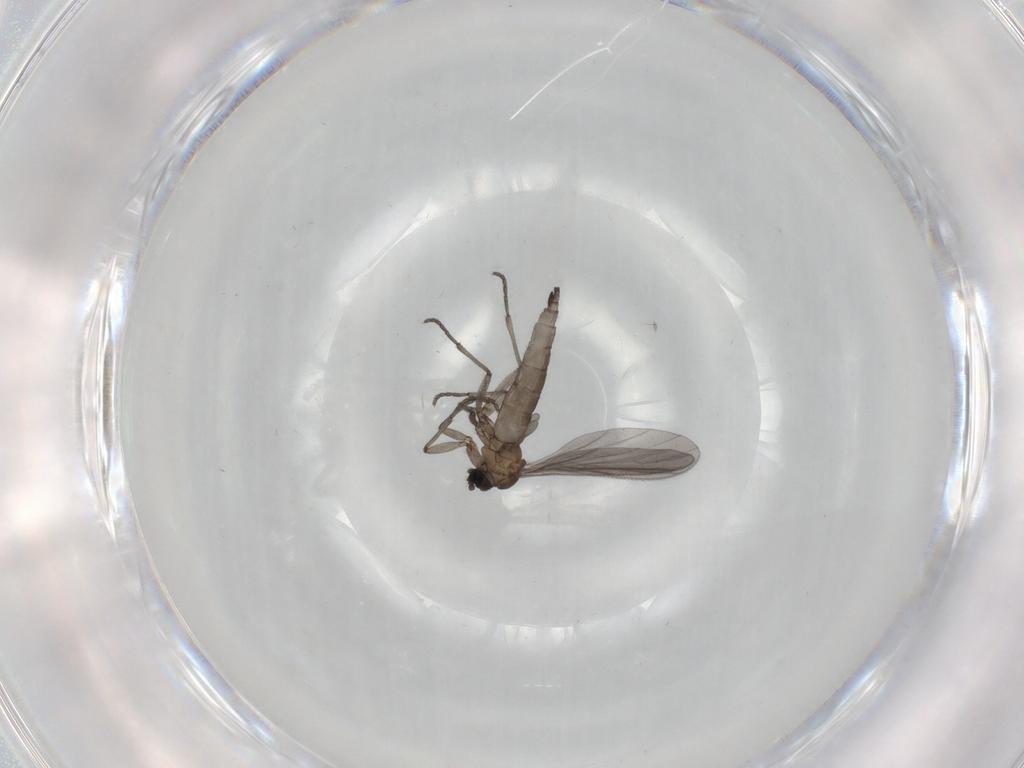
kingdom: Animalia
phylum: Arthropoda
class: Insecta
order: Diptera
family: Sciaridae
